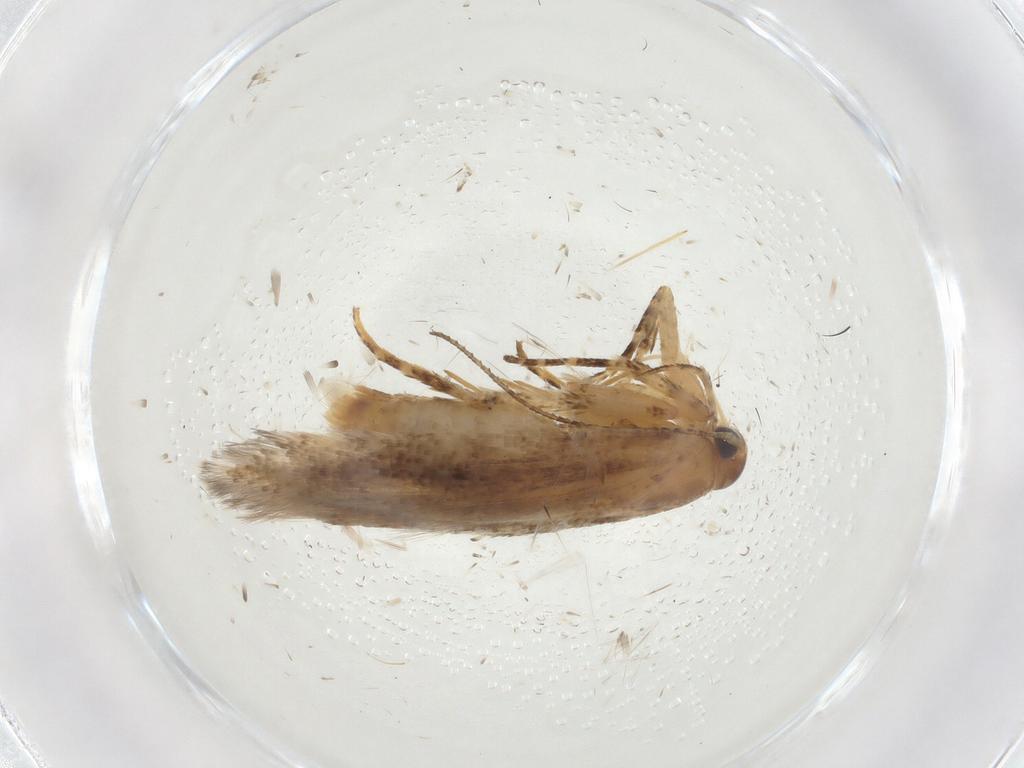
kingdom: Animalia
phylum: Arthropoda
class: Insecta
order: Lepidoptera
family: Gelechiidae
